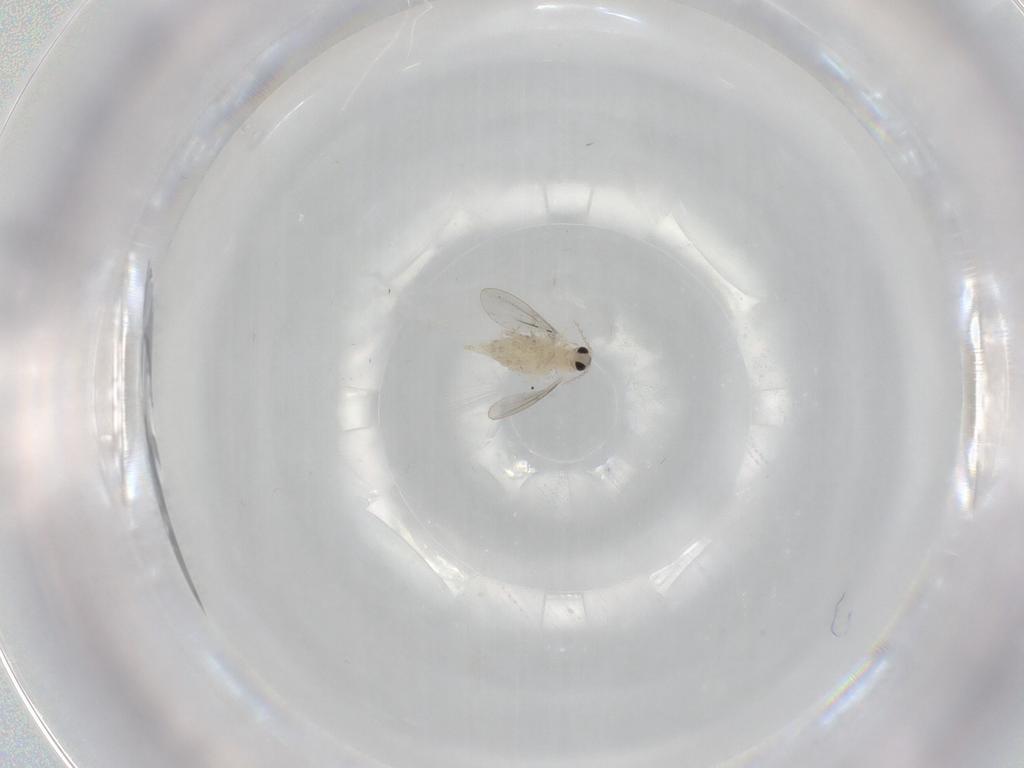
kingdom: Animalia
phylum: Arthropoda
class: Insecta
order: Diptera
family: Cecidomyiidae
